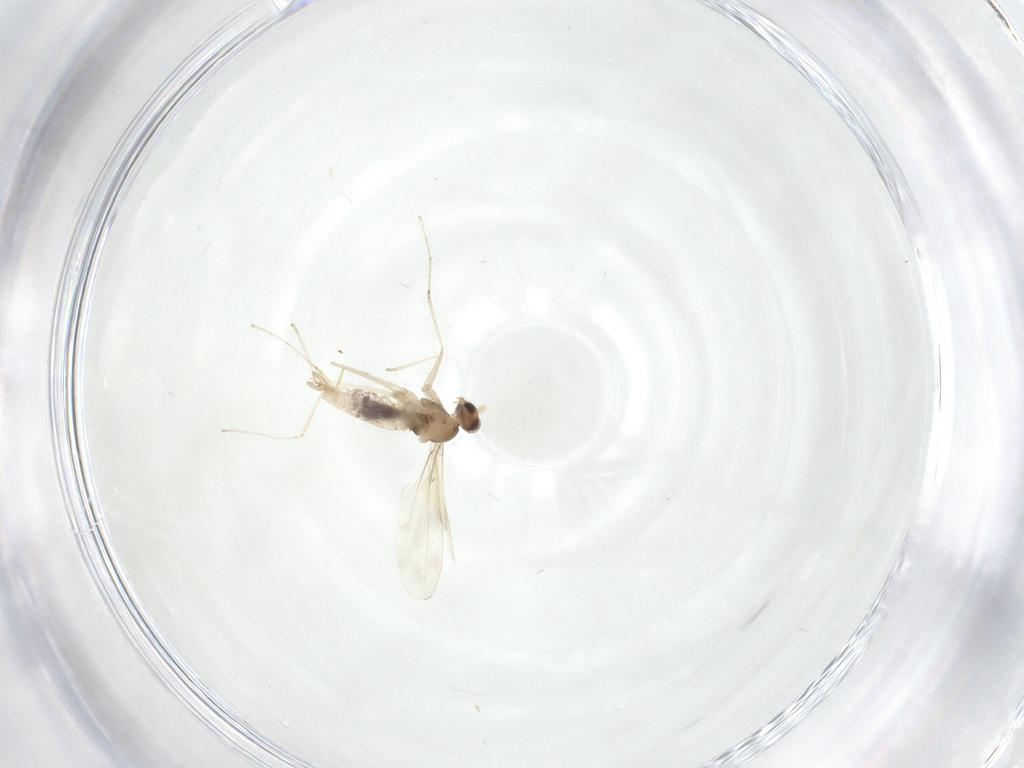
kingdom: Animalia
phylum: Arthropoda
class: Insecta
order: Diptera
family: Cecidomyiidae
